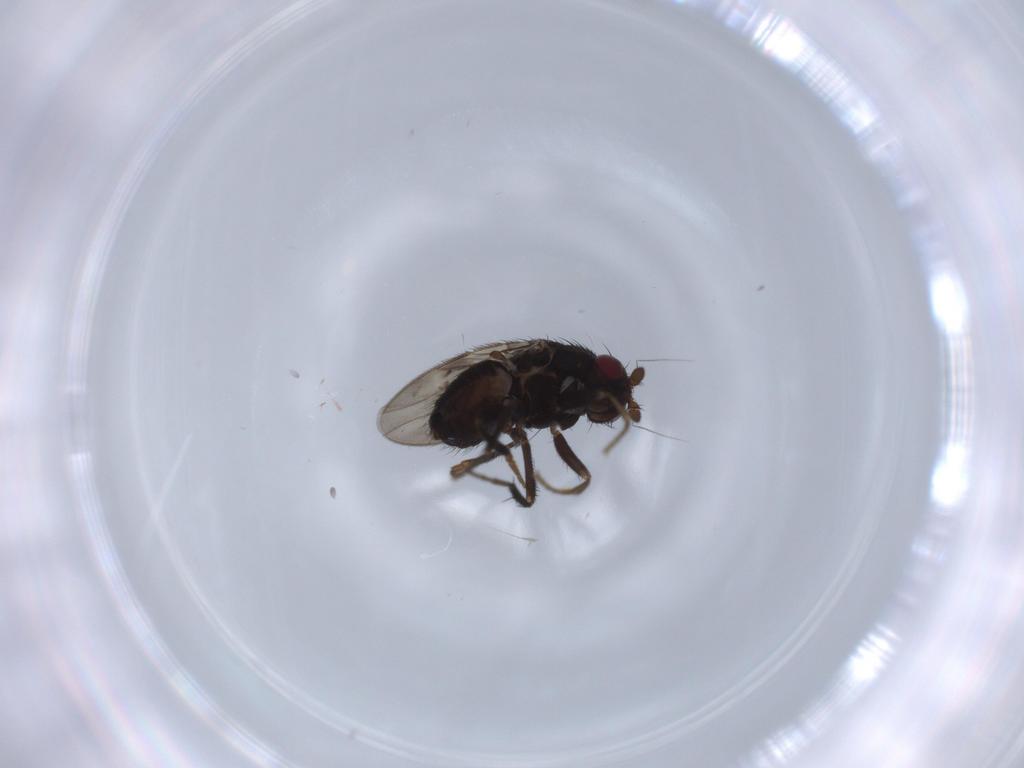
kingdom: Animalia
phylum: Arthropoda
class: Insecta
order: Diptera
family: Sphaeroceridae
